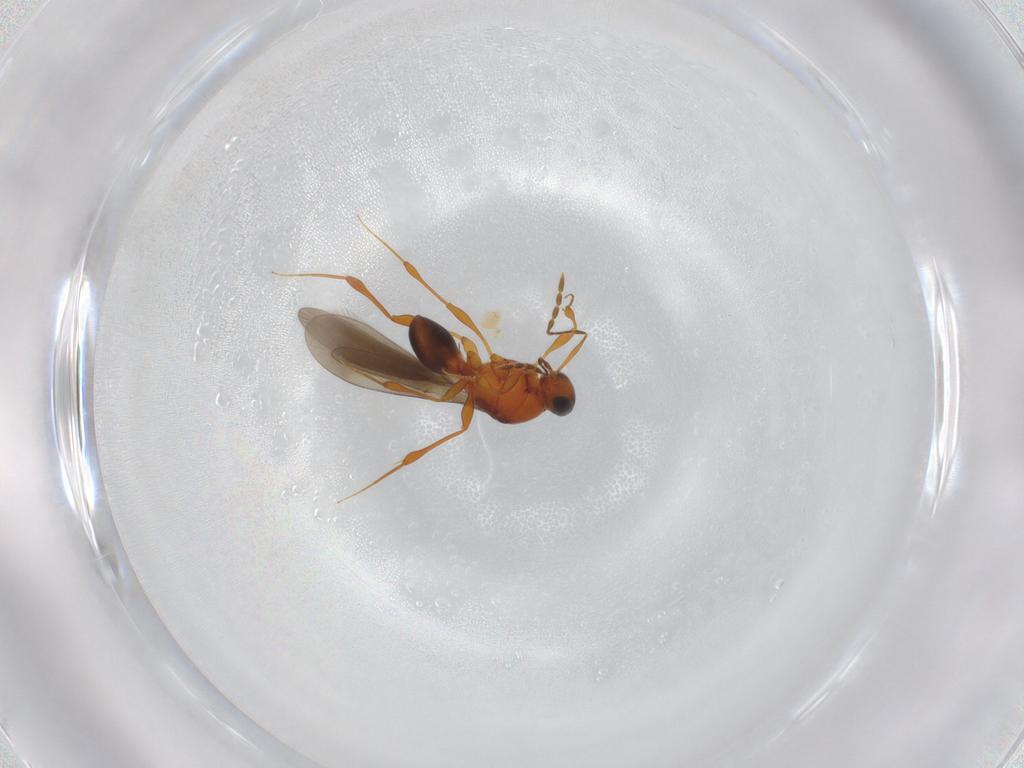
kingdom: Animalia
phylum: Arthropoda
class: Insecta
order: Hymenoptera
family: Platygastridae
